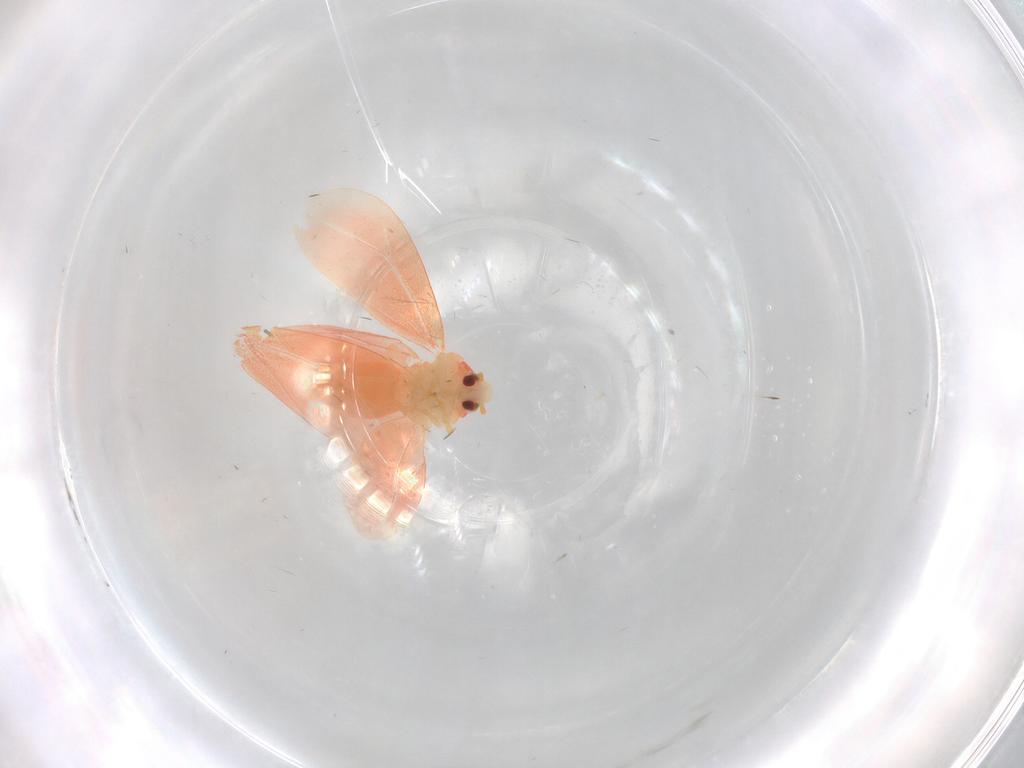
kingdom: Animalia
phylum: Arthropoda
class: Insecta
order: Hemiptera
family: Aleyrodidae
